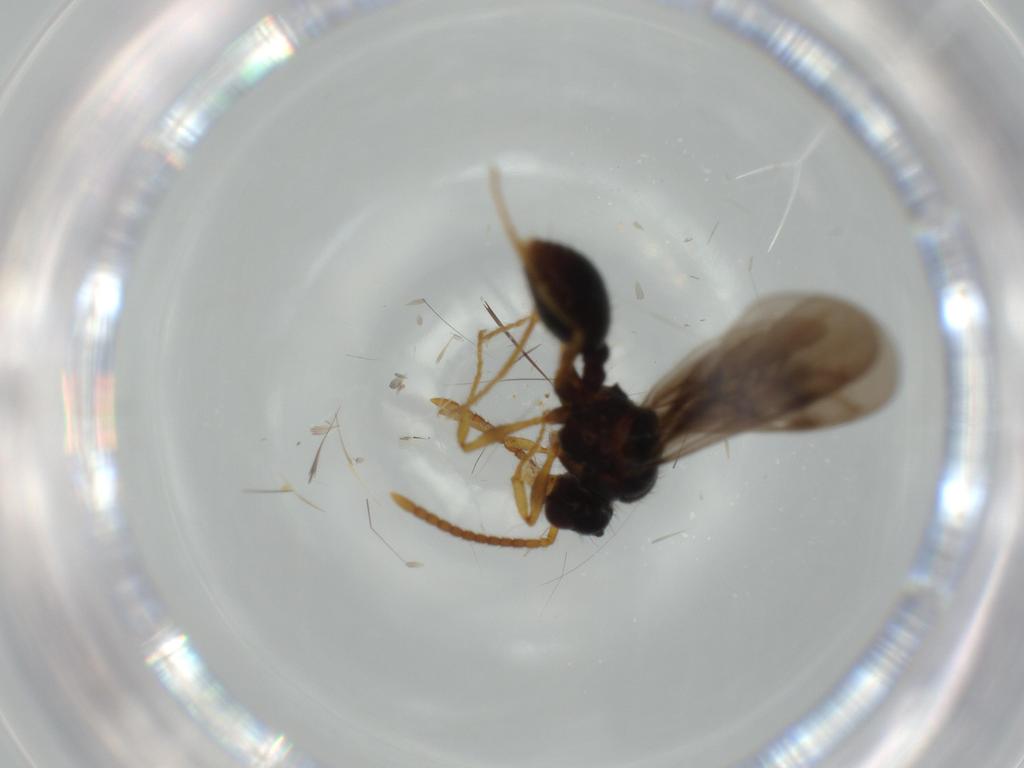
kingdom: Animalia
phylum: Arthropoda
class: Insecta
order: Hymenoptera
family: Formicidae
